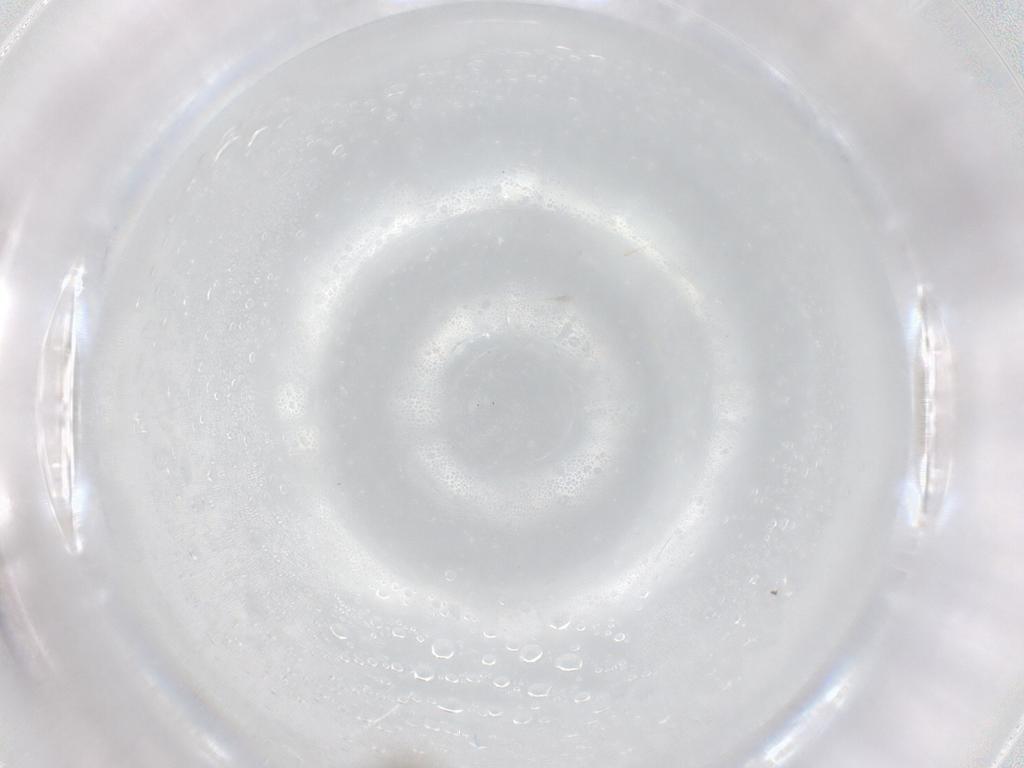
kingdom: Animalia
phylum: Arthropoda
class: Insecta
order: Diptera
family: Cecidomyiidae
